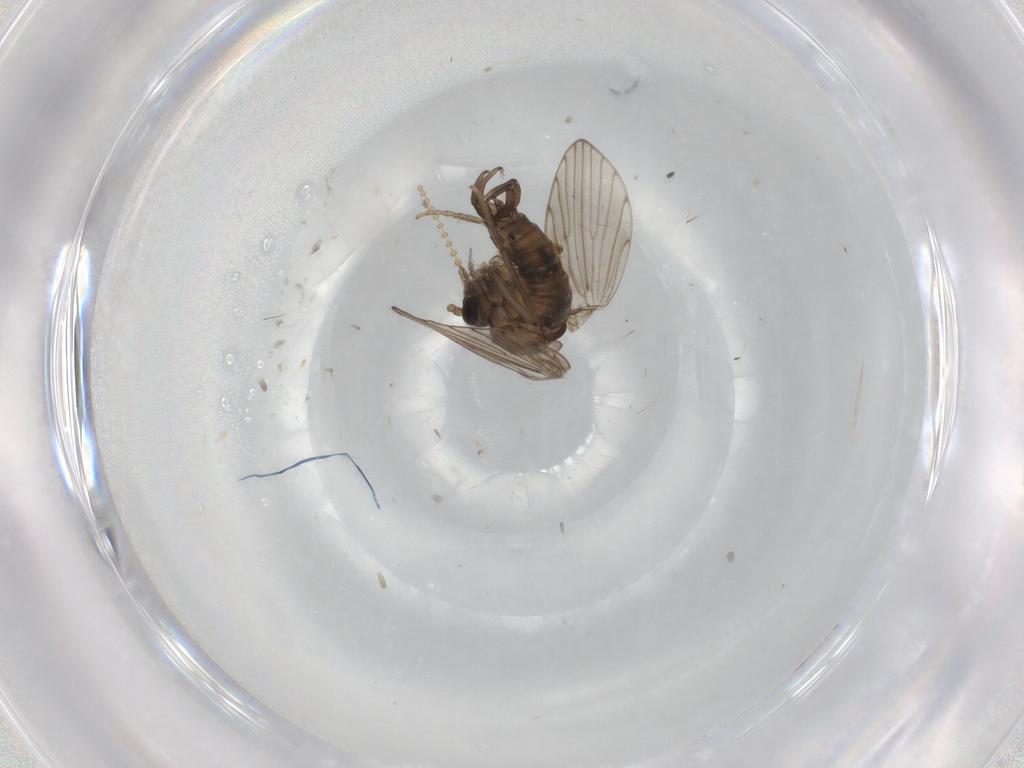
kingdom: Animalia
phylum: Arthropoda
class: Insecta
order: Diptera
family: Psychodidae
